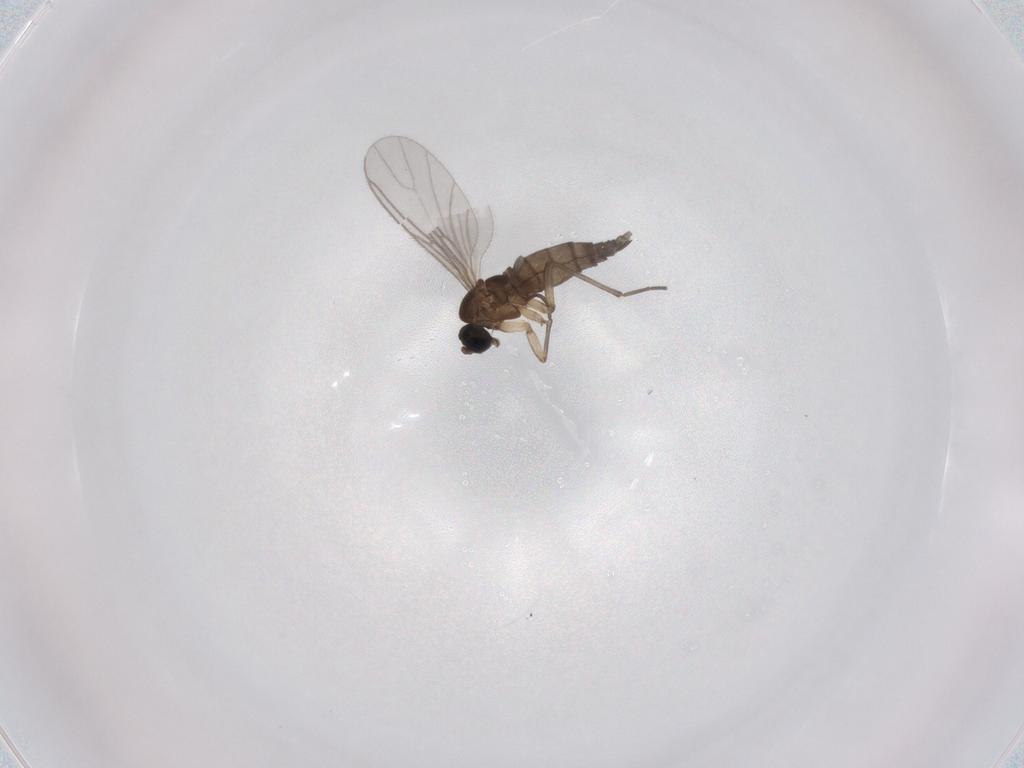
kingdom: Animalia
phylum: Arthropoda
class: Insecta
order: Diptera
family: Sciaridae
